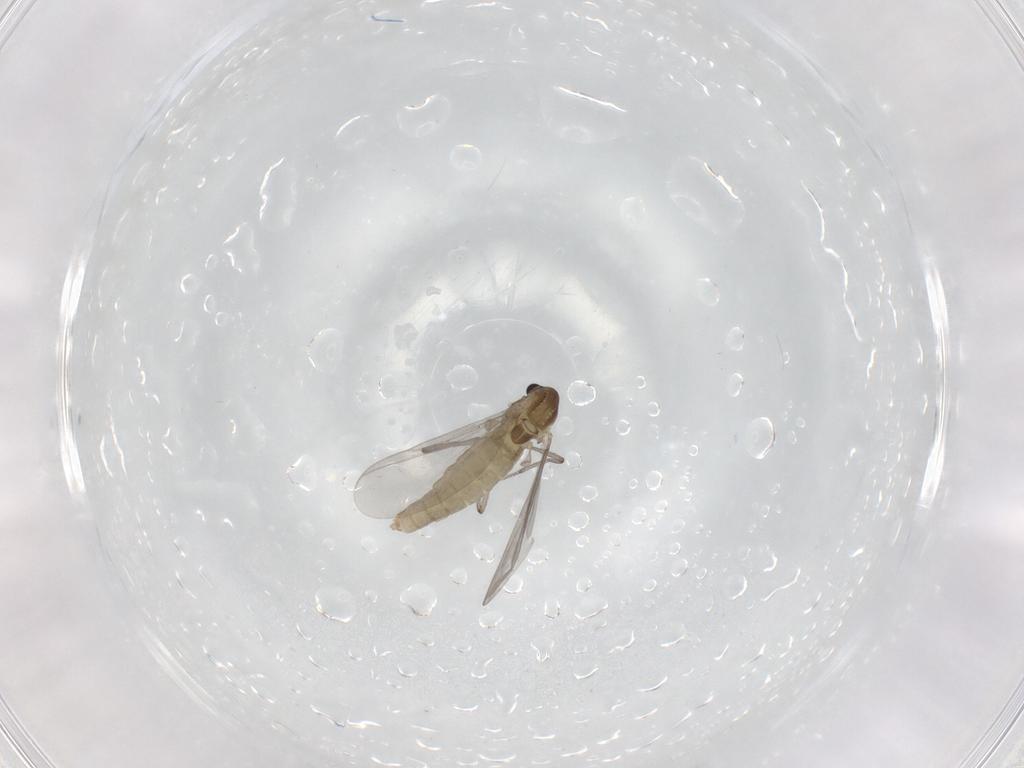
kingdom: Animalia
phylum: Arthropoda
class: Insecta
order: Diptera
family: Chironomidae
